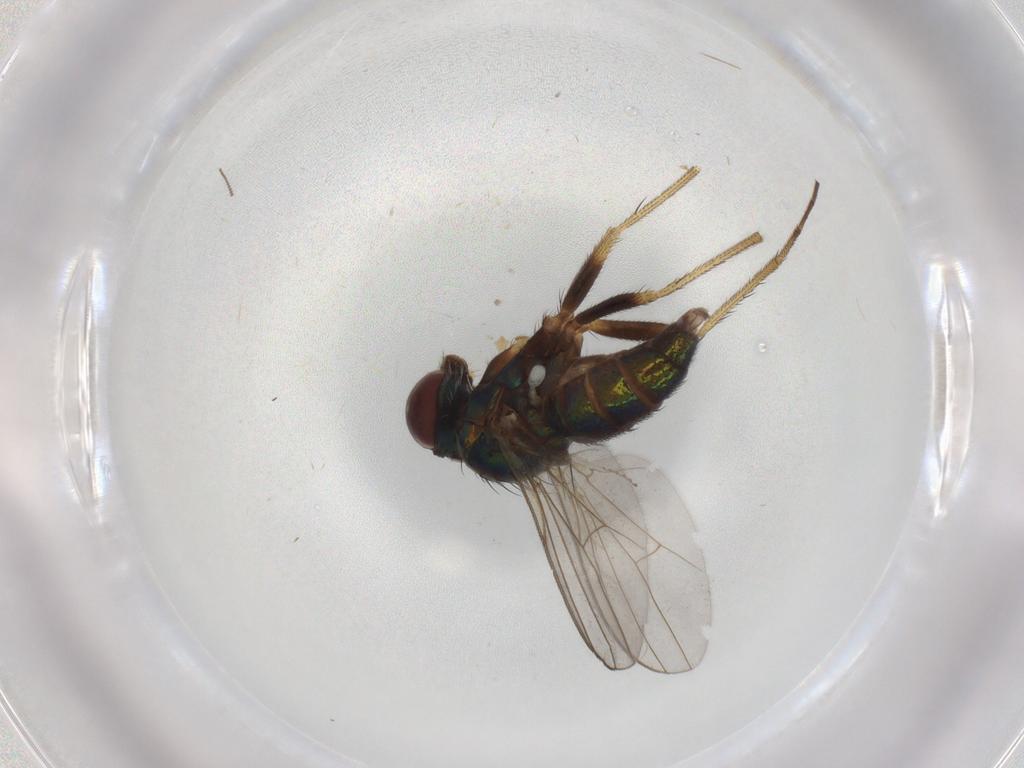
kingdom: Animalia
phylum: Arthropoda
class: Insecta
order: Diptera
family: Dolichopodidae
